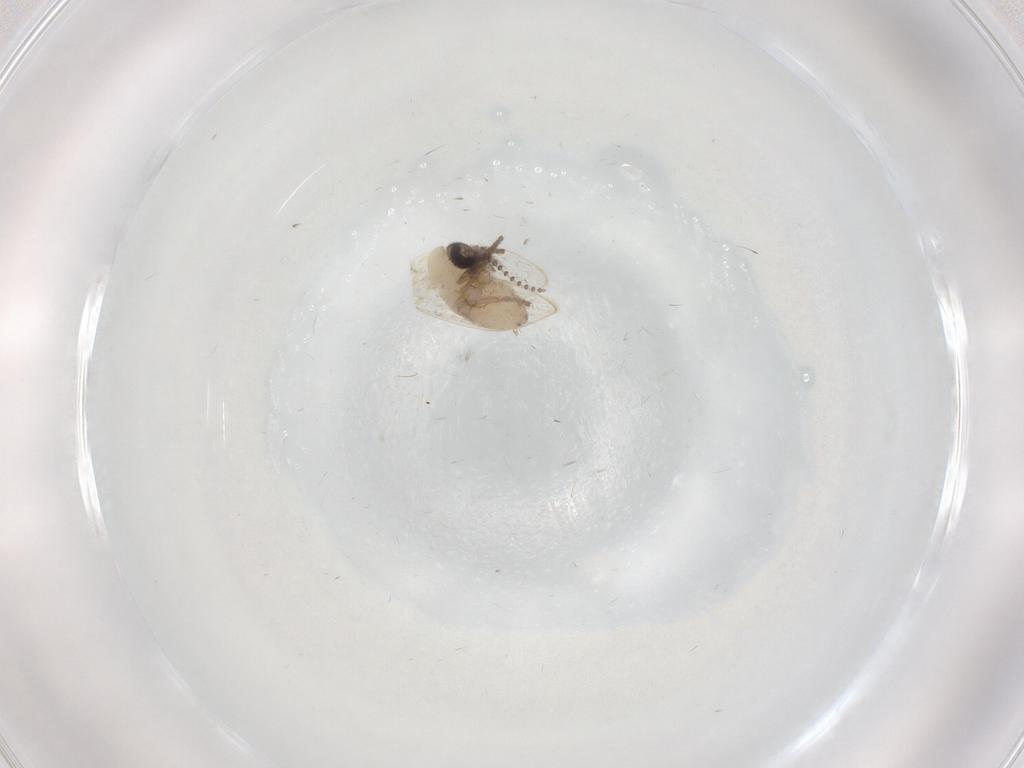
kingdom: Animalia
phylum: Arthropoda
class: Insecta
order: Diptera
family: Psychodidae
